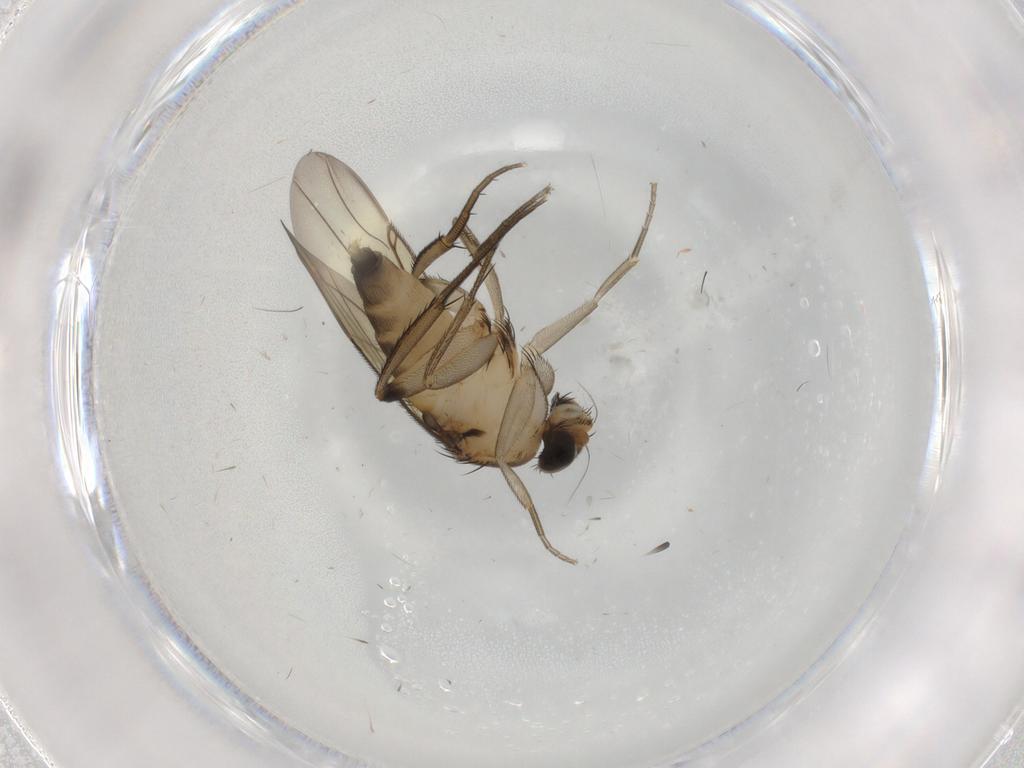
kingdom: Animalia
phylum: Arthropoda
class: Insecta
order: Diptera
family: Phoridae
